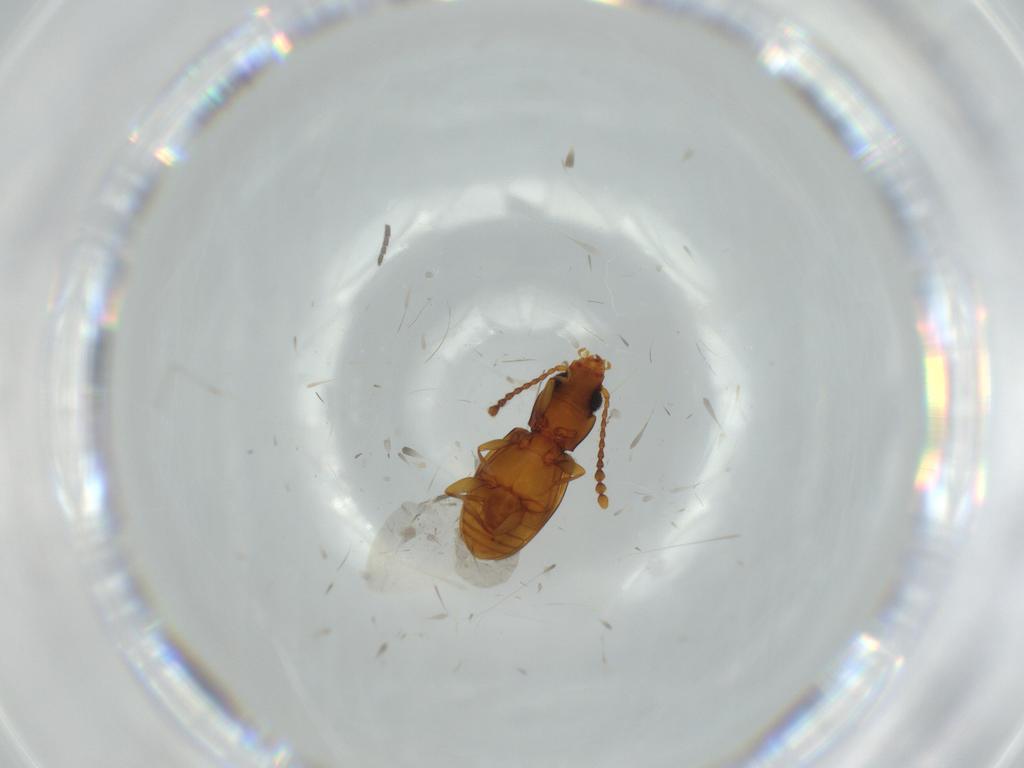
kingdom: Animalia
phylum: Arthropoda
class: Insecta
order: Coleoptera
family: Laemophloeidae
